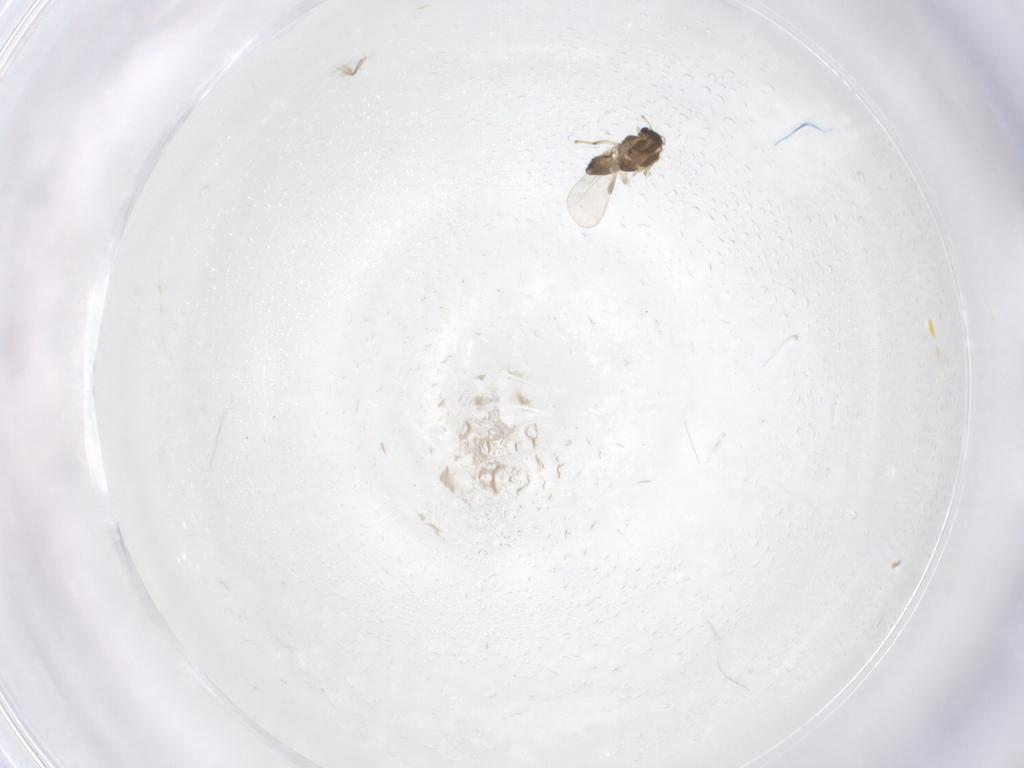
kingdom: Animalia
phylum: Arthropoda
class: Insecta
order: Diptera
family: Chironomidae
